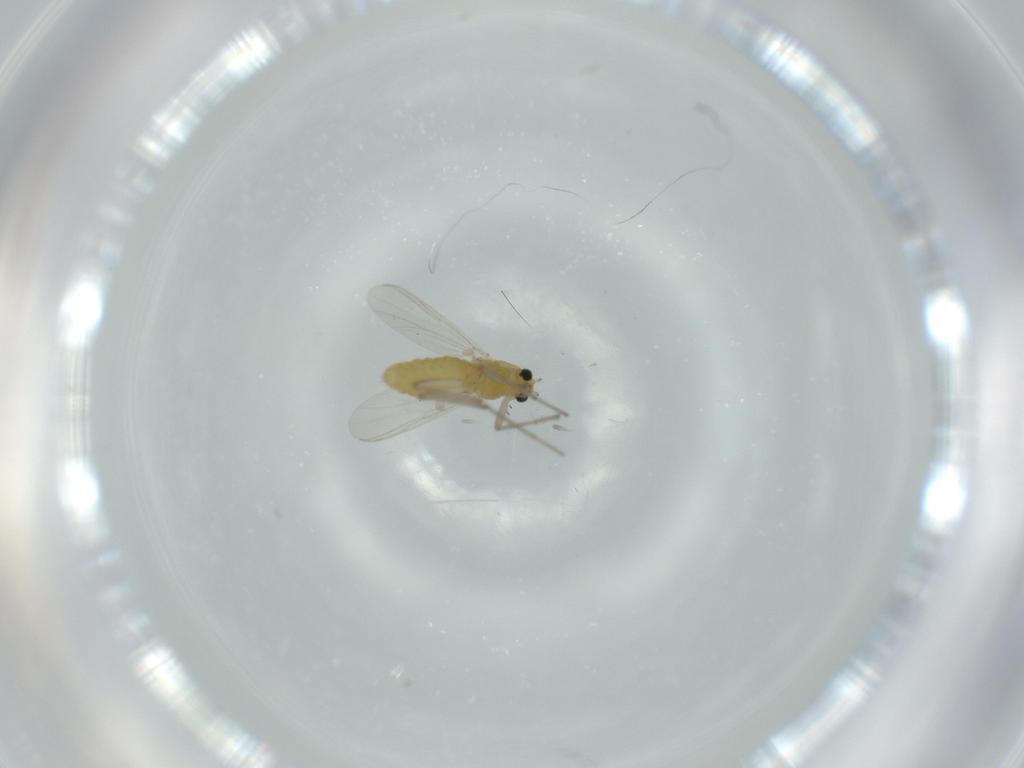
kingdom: Animalia
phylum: Arthropoda
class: Insecta
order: Diptera
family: Chironomidae
